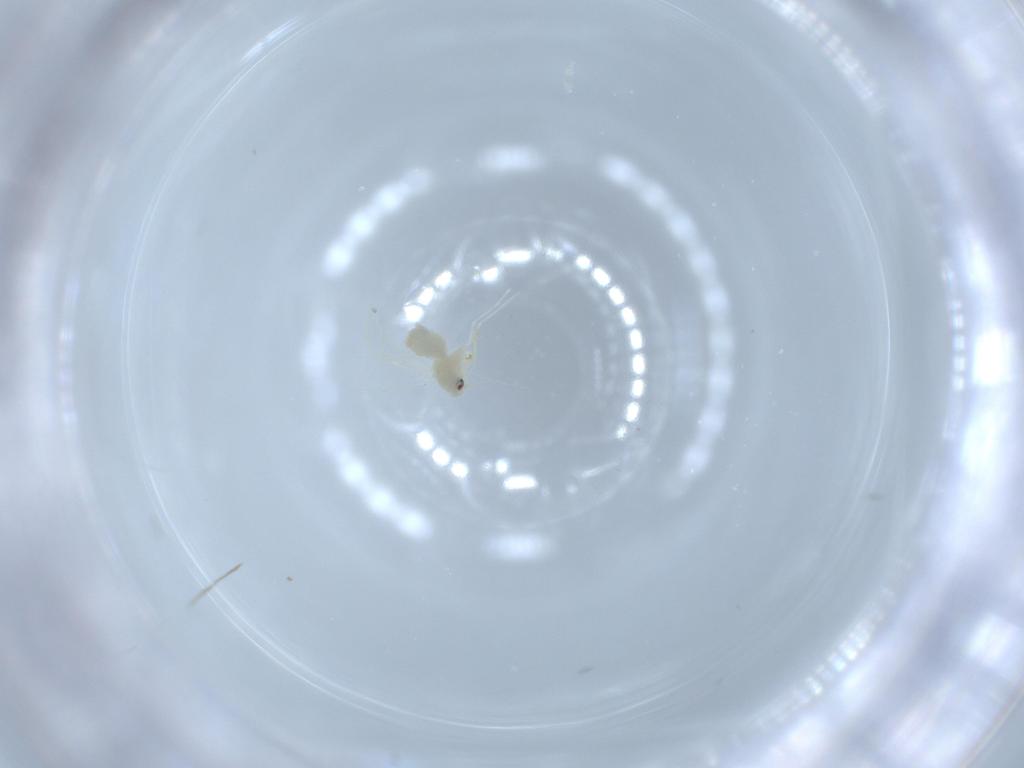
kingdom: Animalia
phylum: Arthropoda
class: Insecta
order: Hemiptera
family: Aleyrodidae
